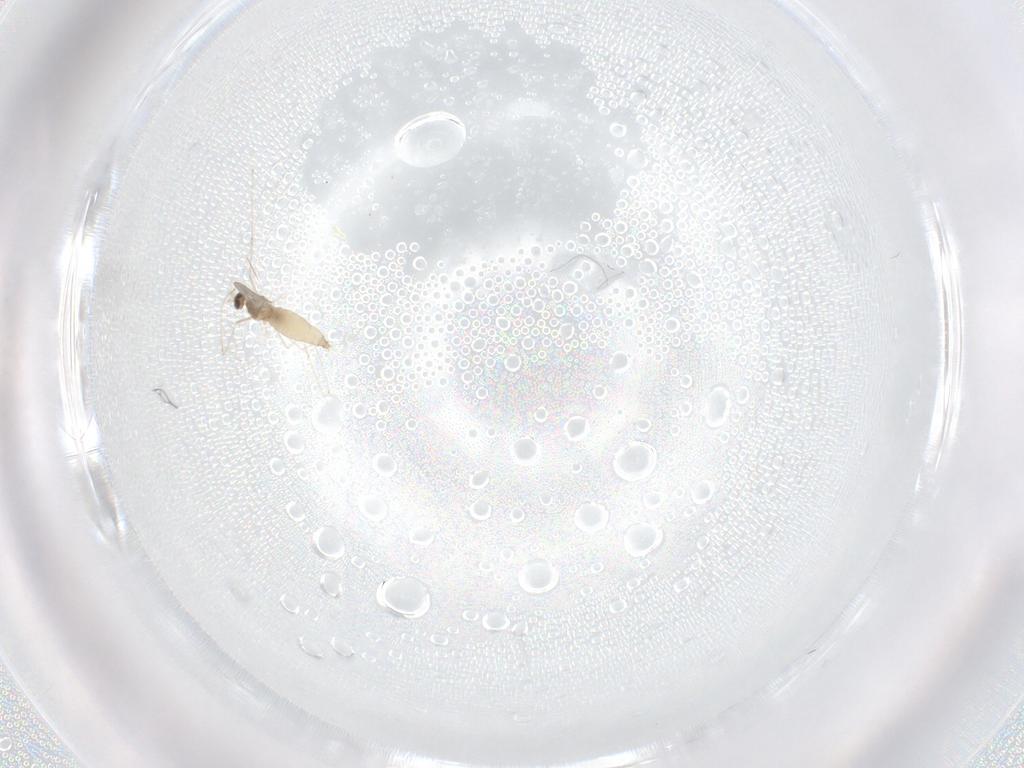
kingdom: Animalia
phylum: Arthropoda
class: Insecta
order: Diptera
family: Cecidomyiidae
